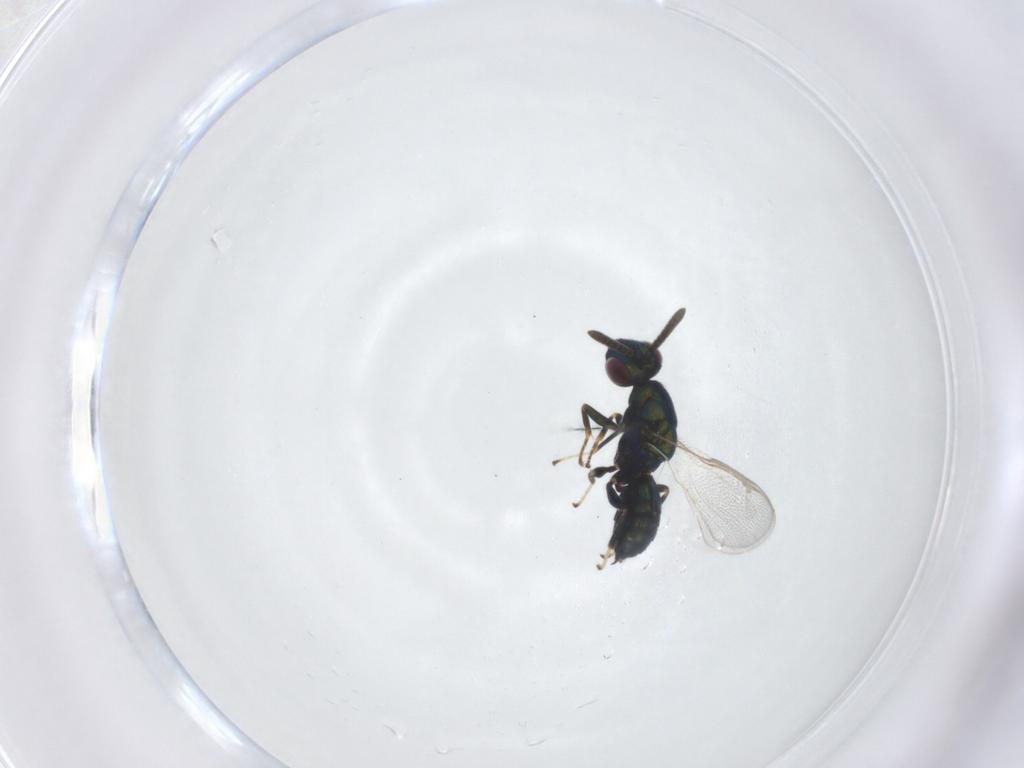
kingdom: Animalia
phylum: Arthropoda
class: Insecta
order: Hymenoptera
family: Torymidae
